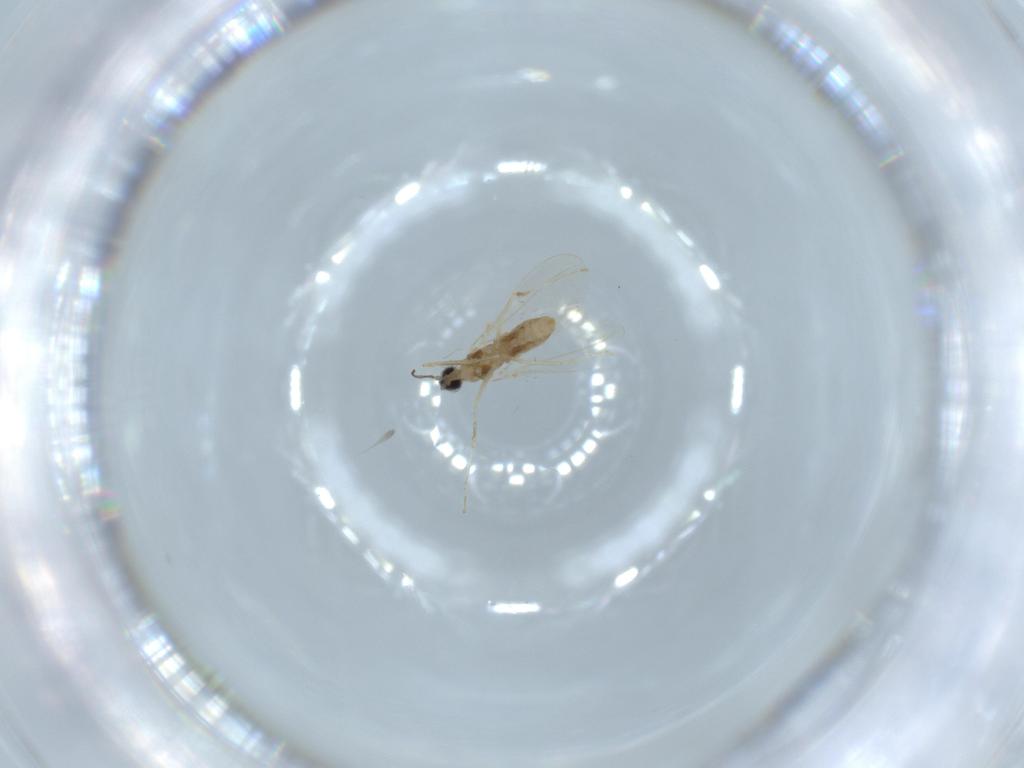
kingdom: Animalia
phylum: Arthropoda
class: Insecta
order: Diptera
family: Cecidomyiidae
